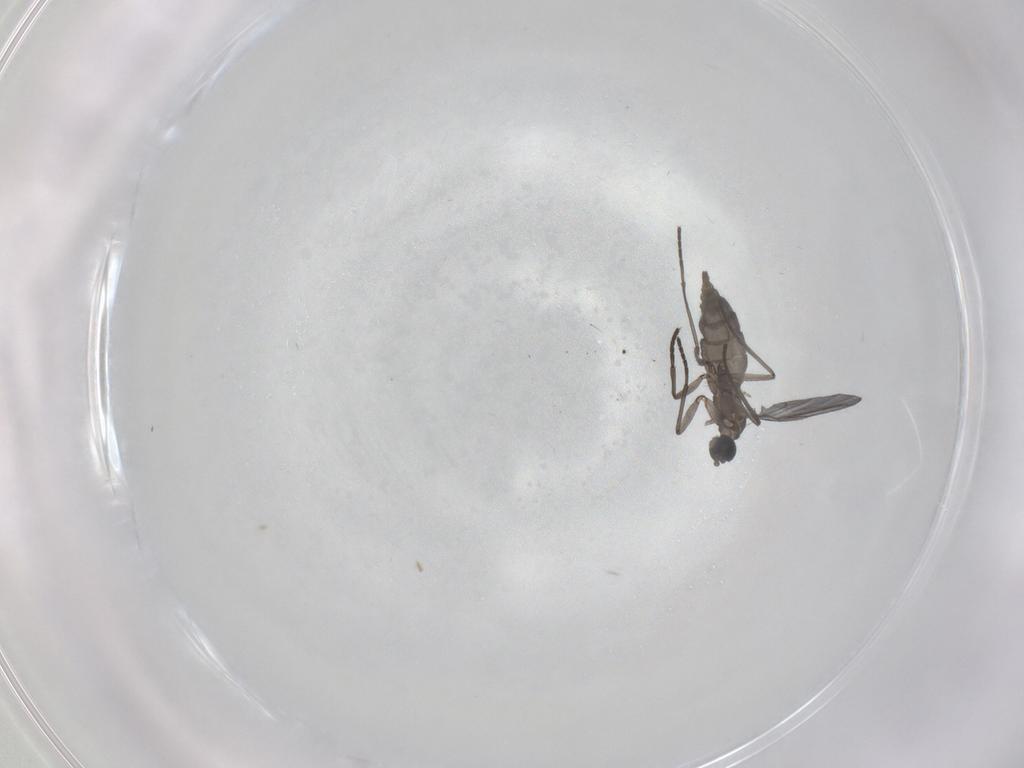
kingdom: Animalia
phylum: Arthropoda
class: Insecta
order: Diptera
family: Sciaridae
